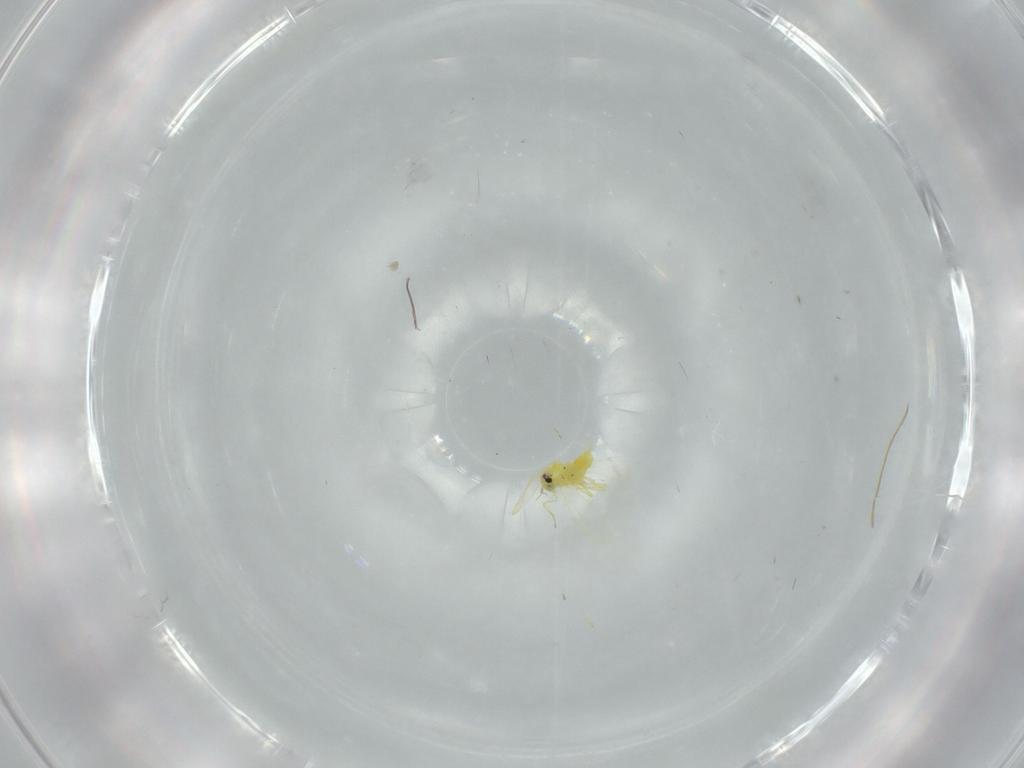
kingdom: Animalia
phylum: Arthropoda
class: Insecta
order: Hemiptera
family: Aleyrodidae
